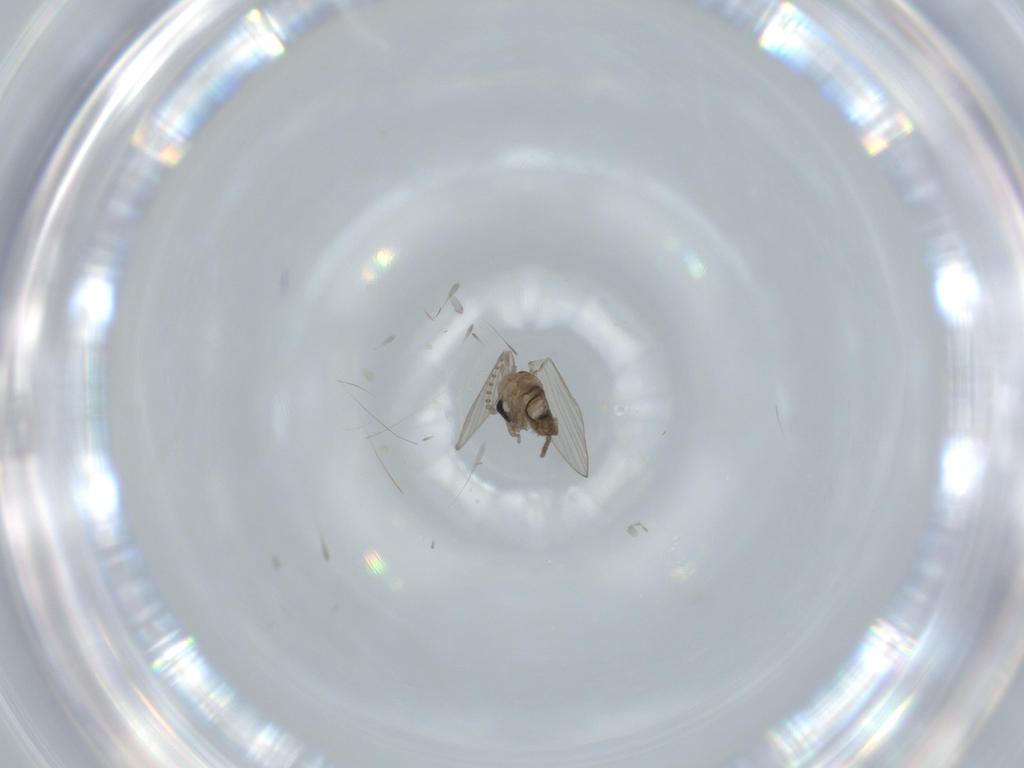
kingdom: Animalia
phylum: Arthropoda
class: Insecta
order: Diptera
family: Psychodidae
